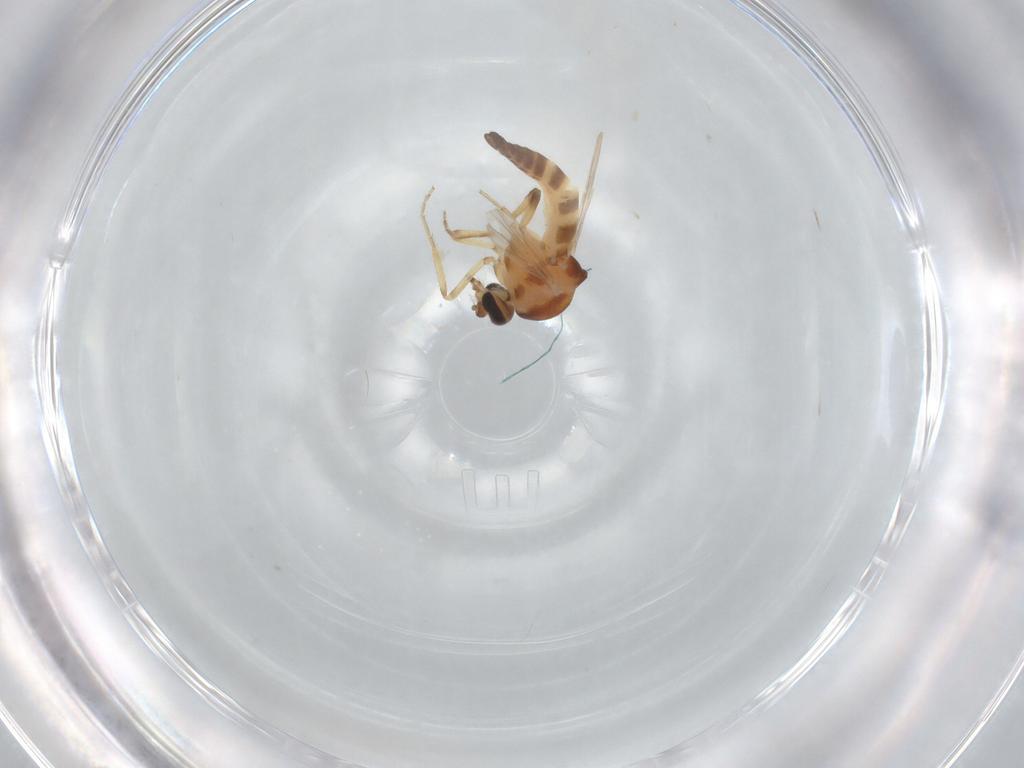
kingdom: Animalia
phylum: Arthropoda
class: Insecta
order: Diptera
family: Ceratopogonidae
